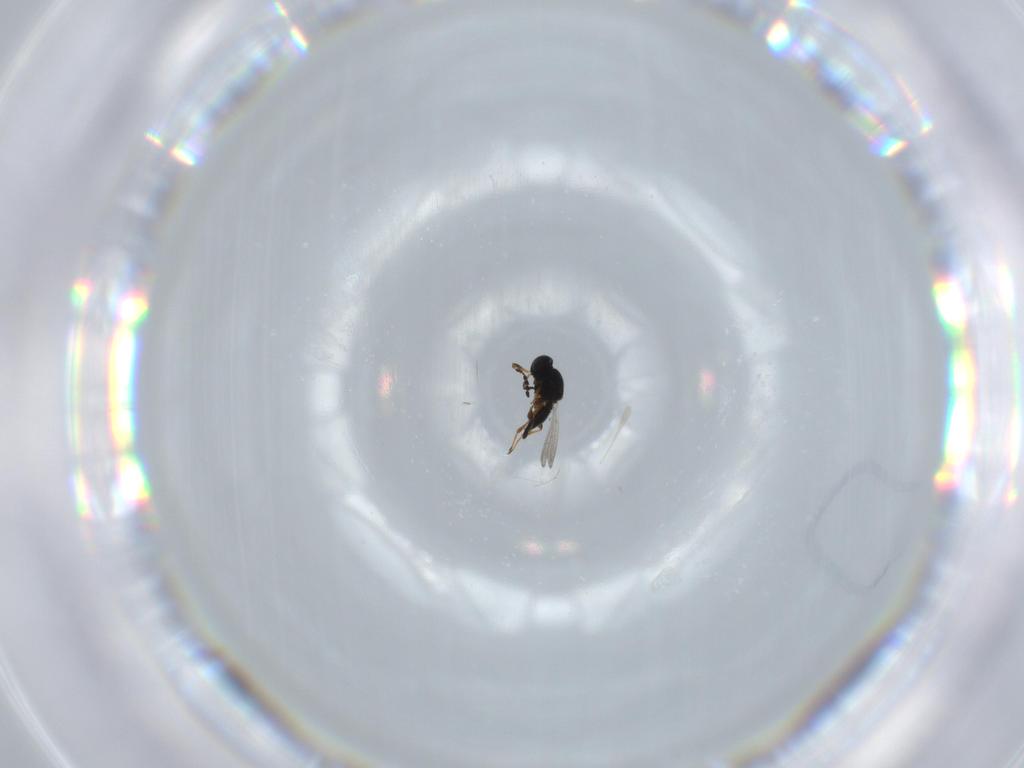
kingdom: Animalia
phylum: Arthropoda
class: Insecta
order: Hymenoptera
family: Platygastridae
